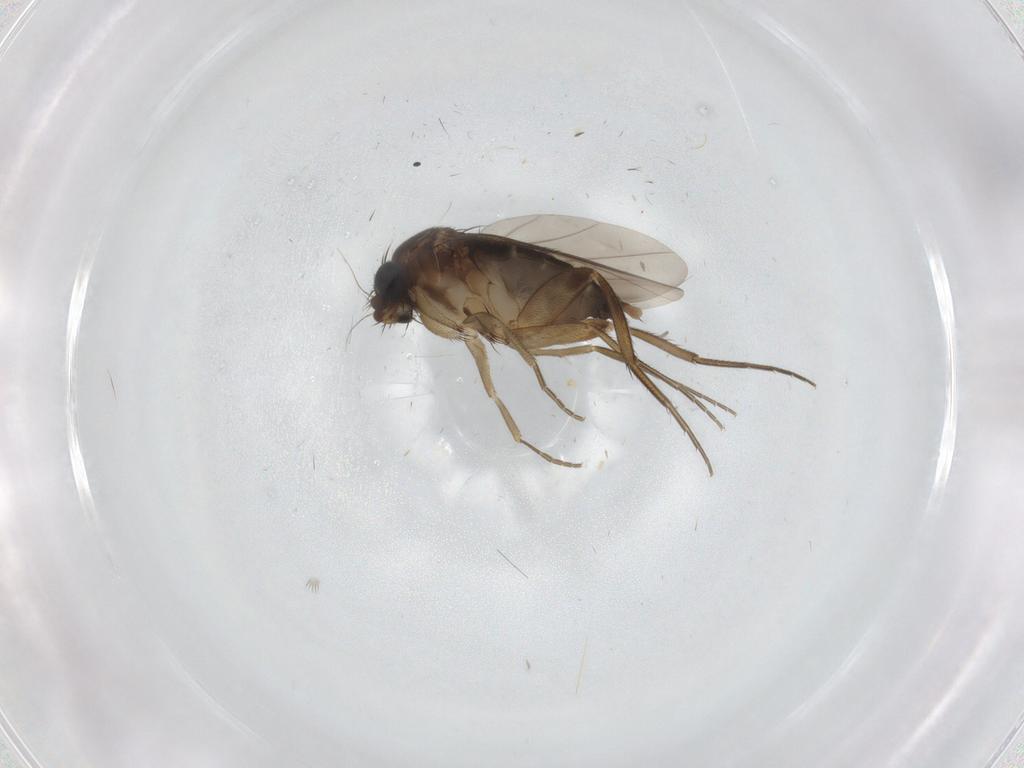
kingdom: Animalia
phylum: Arthropoda
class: Insecta
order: Diptera
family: Phoridae
